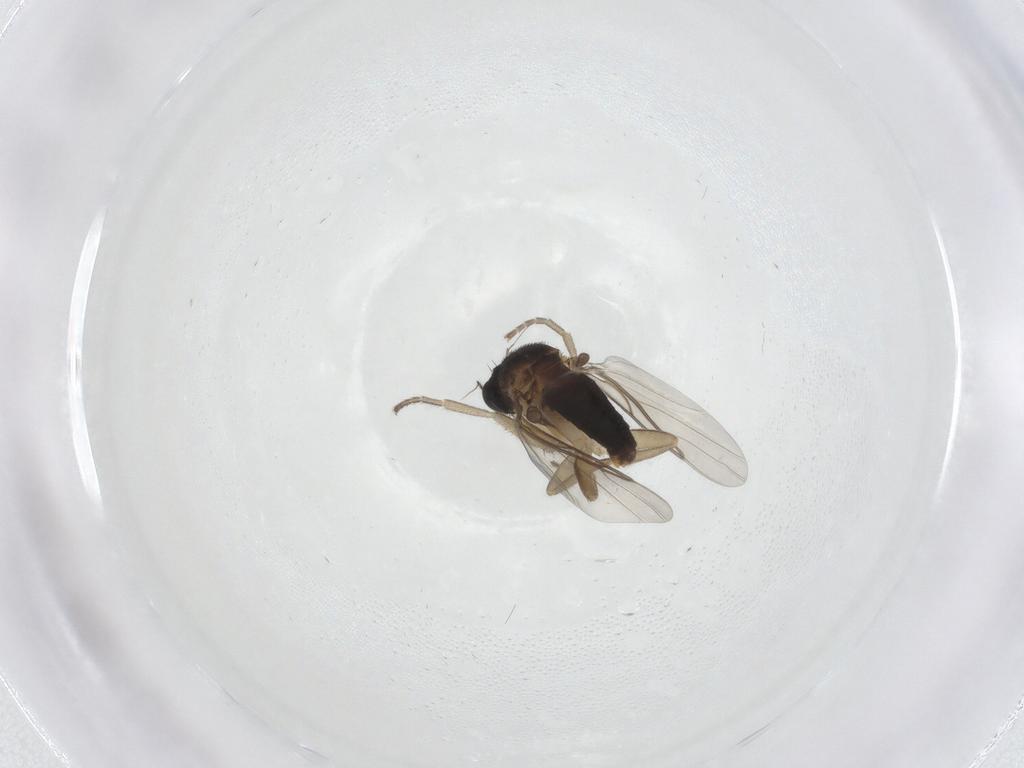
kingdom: Animalia
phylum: Arthropoda
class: Insecta
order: Diptera
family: Phoridae
